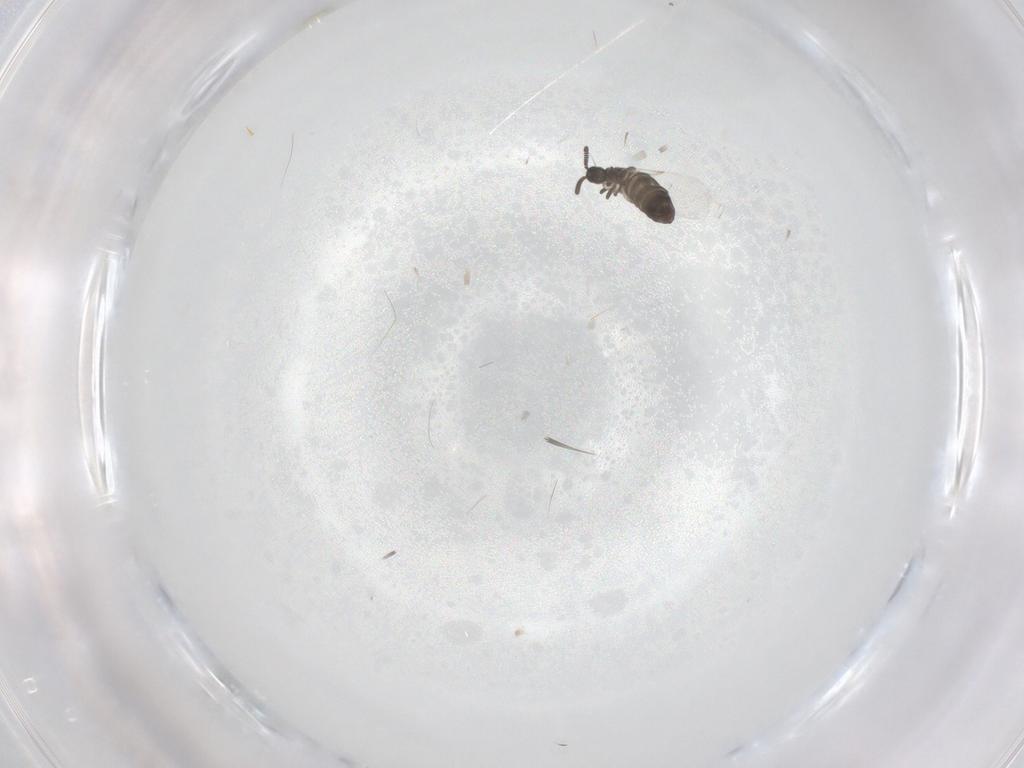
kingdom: Animalia
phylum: Arthropoda
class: Insecta
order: Diptera
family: Scatopsidae
